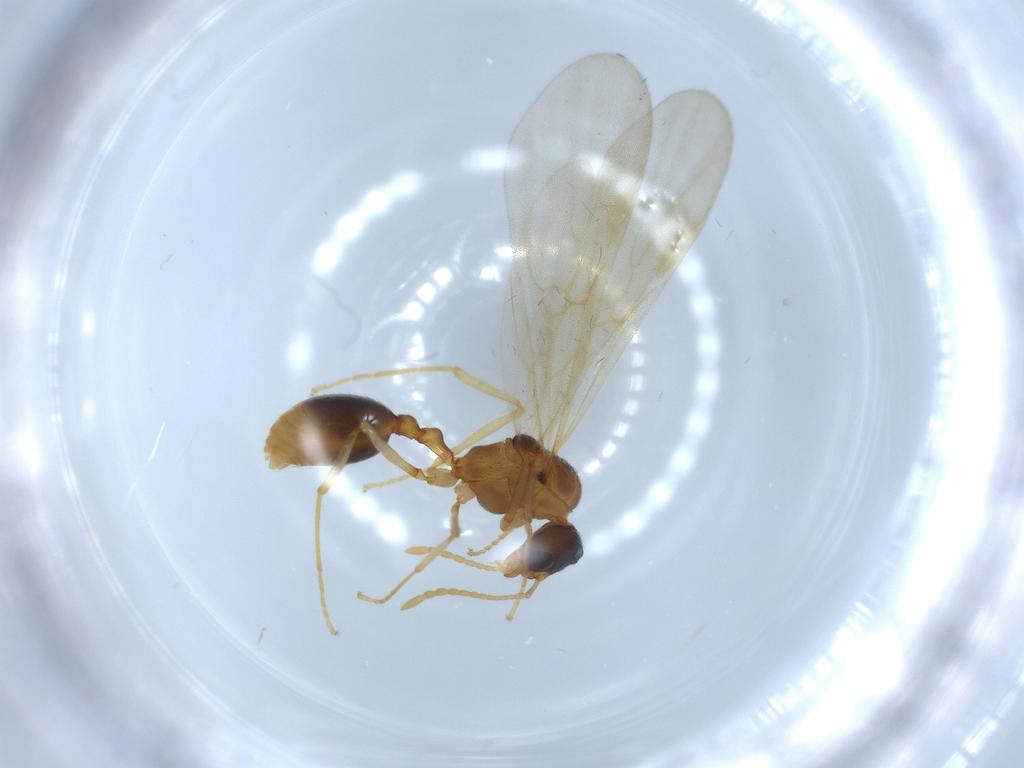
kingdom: Animalia
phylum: Arthropoda
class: Insecta
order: Hymenoptera
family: Formicidae
